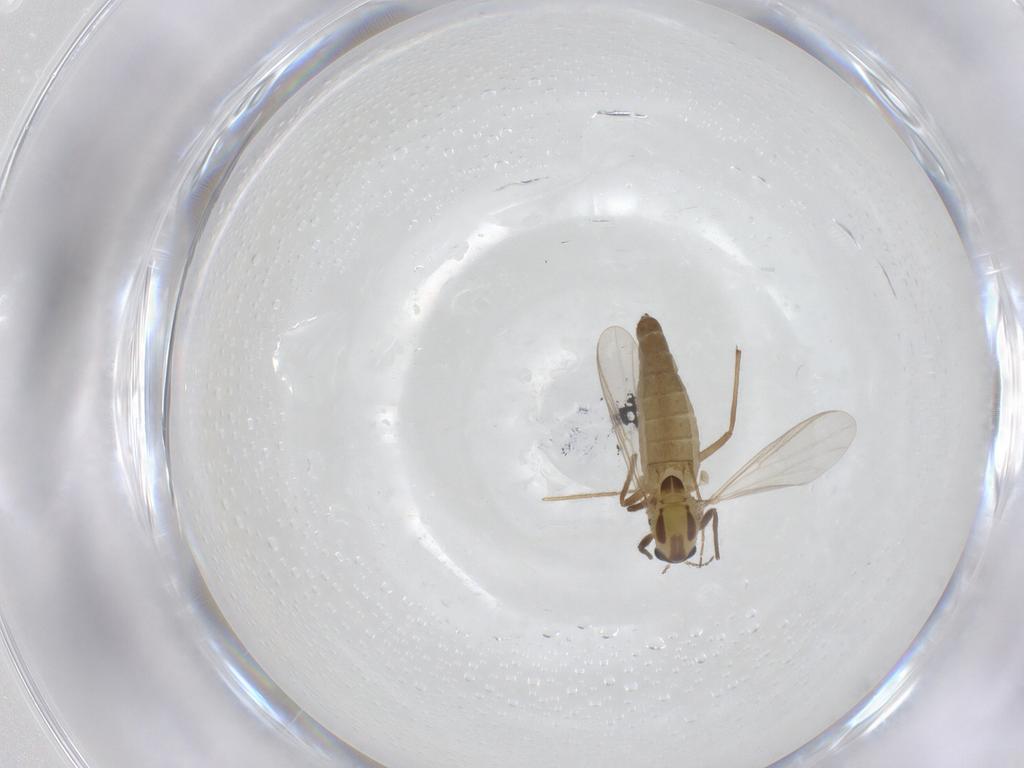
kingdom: Animalia
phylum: Arthropoda
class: Insecta
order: Diptera
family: Chironomidae
